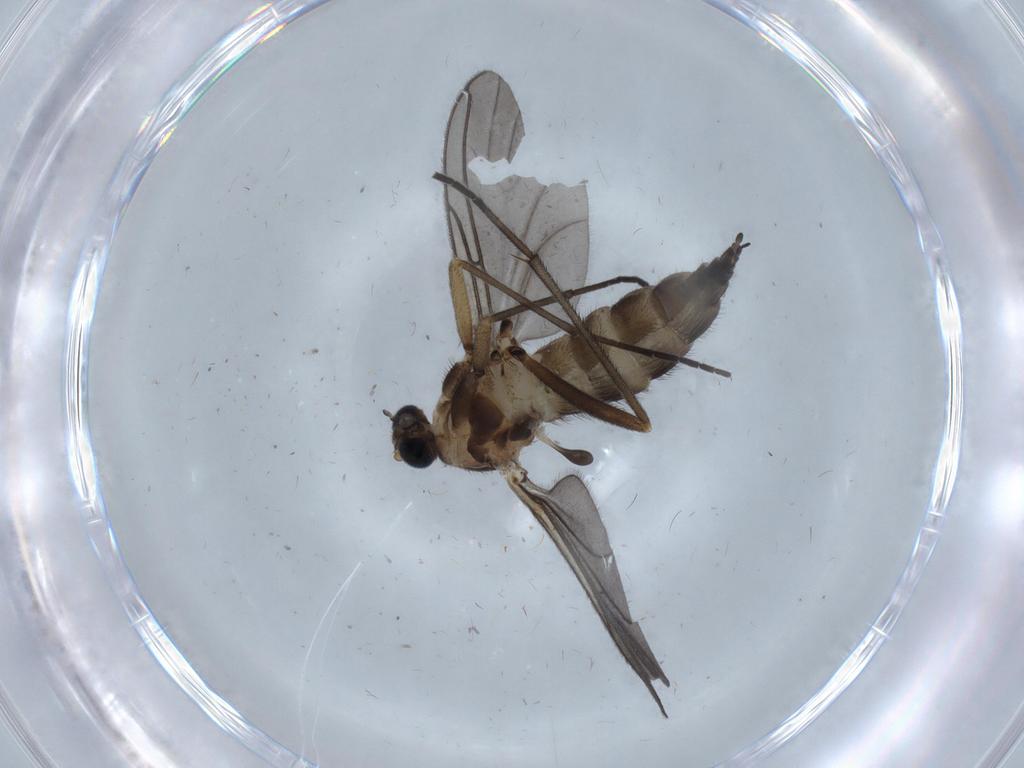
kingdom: Animalia
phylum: Arthropoda
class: Insecta
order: Diptera
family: Sciaridae
